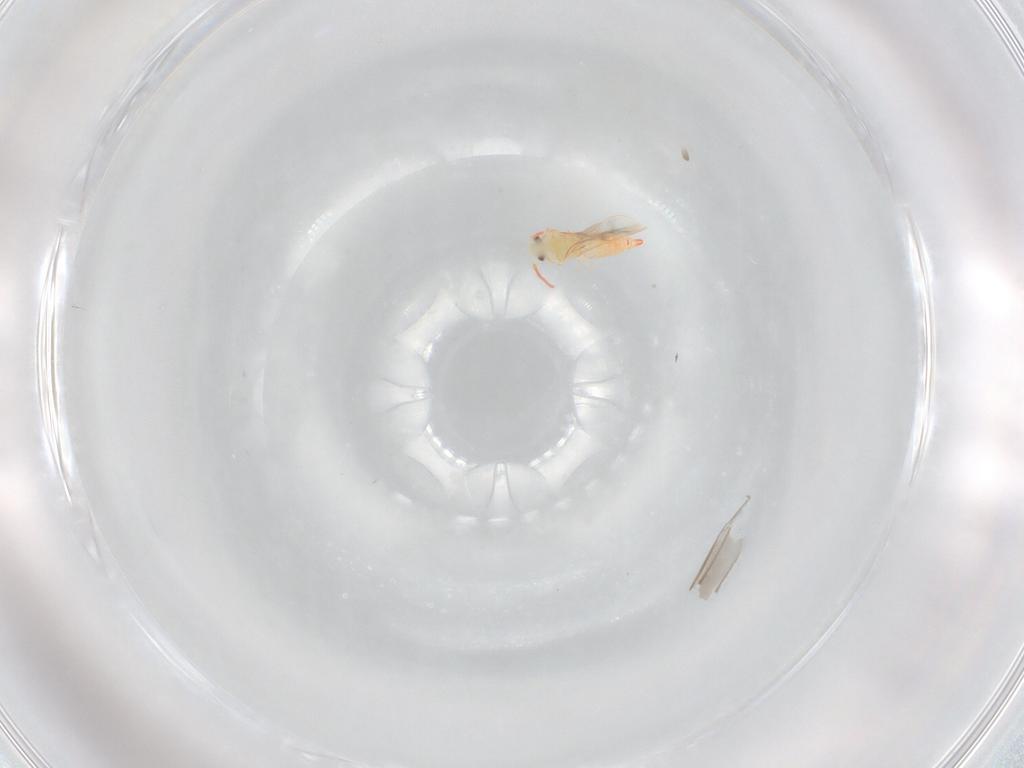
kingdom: Animalia
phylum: Arthropoda
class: Insecta
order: Hemiptera
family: Aleyrodidae
